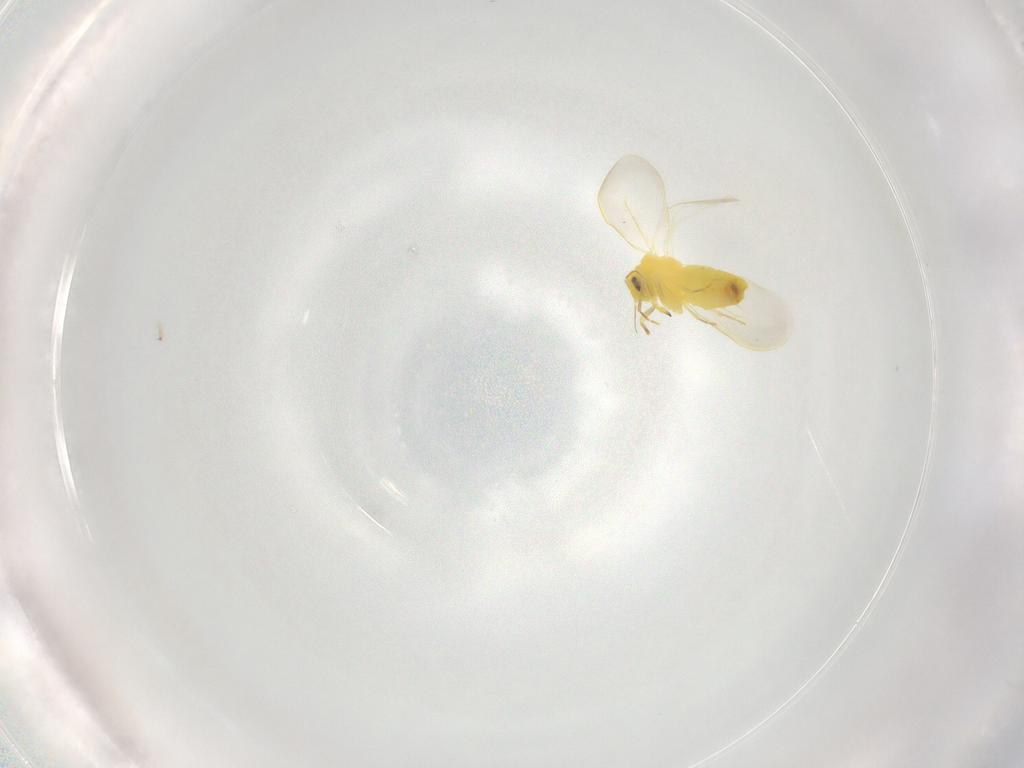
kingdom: Animalia
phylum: Arthropoda
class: Insecta
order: Hemiptera
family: Aleyrodidae
